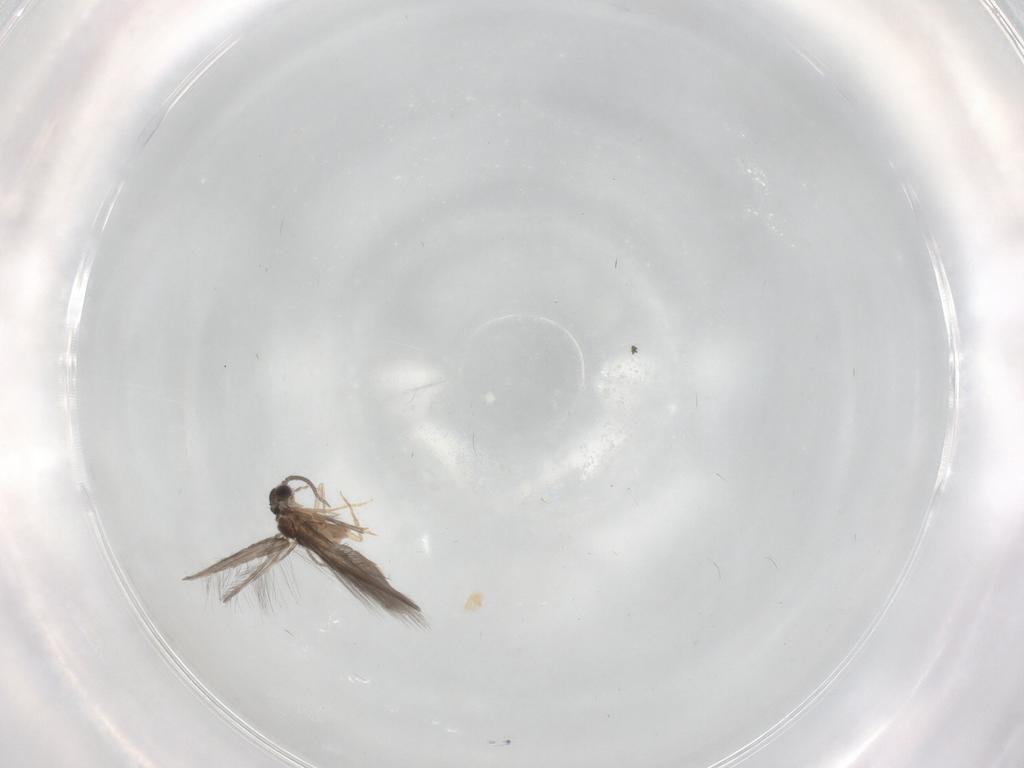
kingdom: Animalia
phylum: Arthropoda
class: Insecta
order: Trichoptera
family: Hydroptilidae
